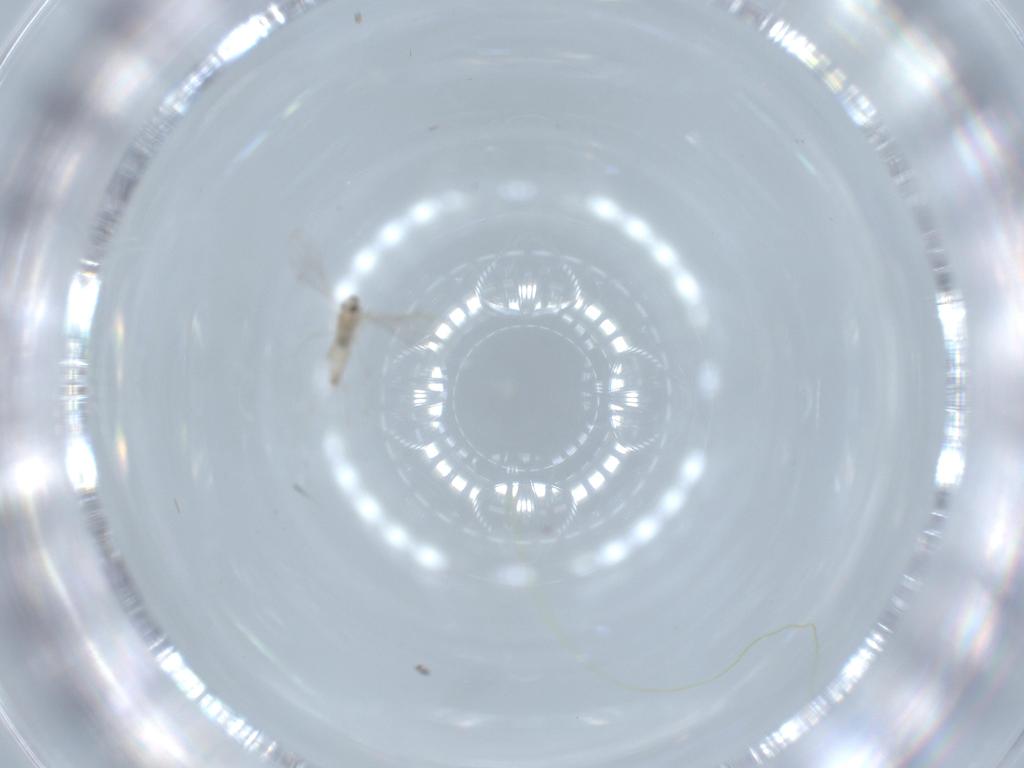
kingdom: Animalia
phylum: Arthropoda
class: Insecta
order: Diptera
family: Cecidomyiidae
